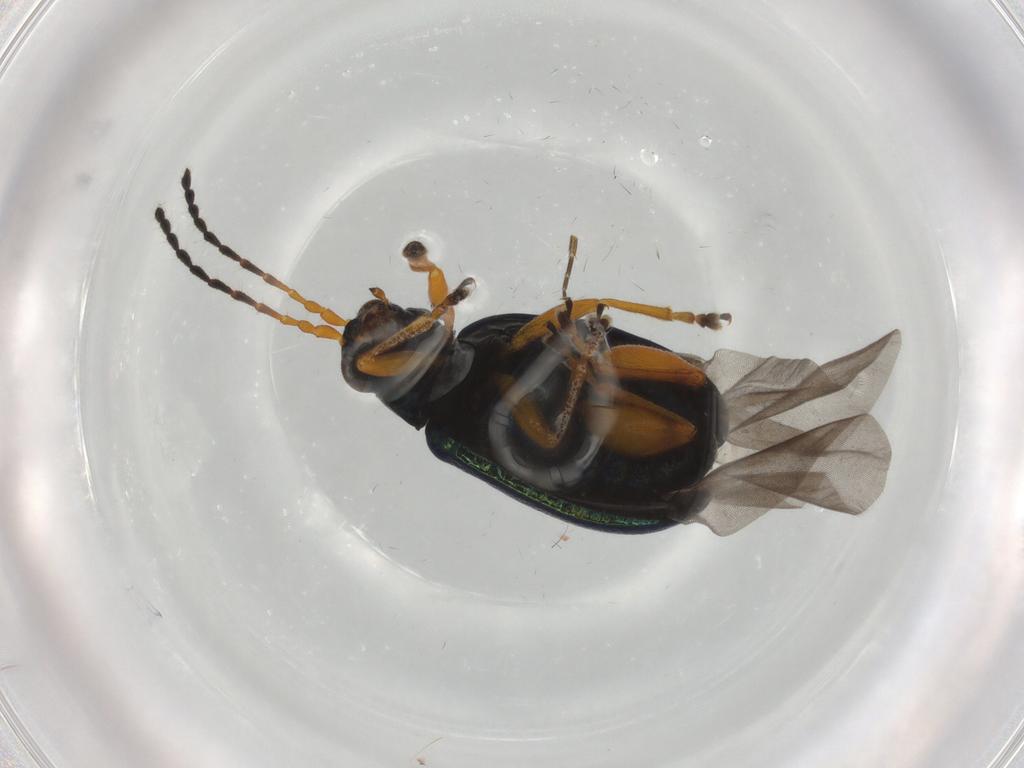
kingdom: Animalia
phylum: Arthropoda
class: Insecta
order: Coleoptera
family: Chrysomelidae
